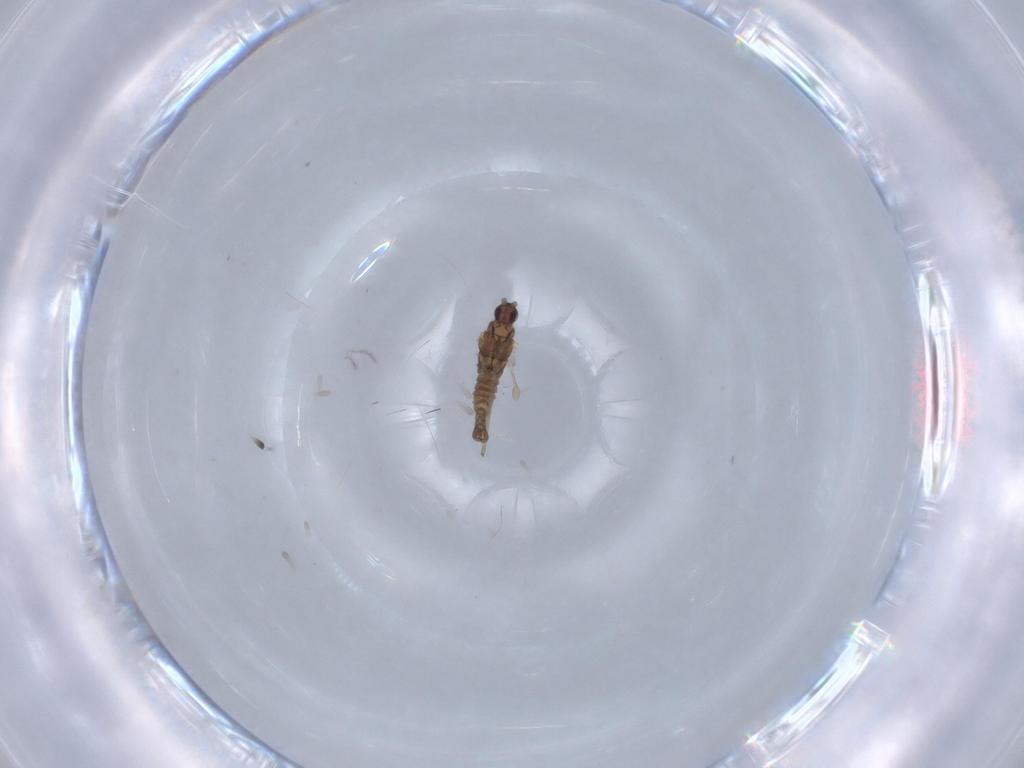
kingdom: Animalia
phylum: Arthropoda
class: Insecta
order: Diptera
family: Cecidomyiidae
